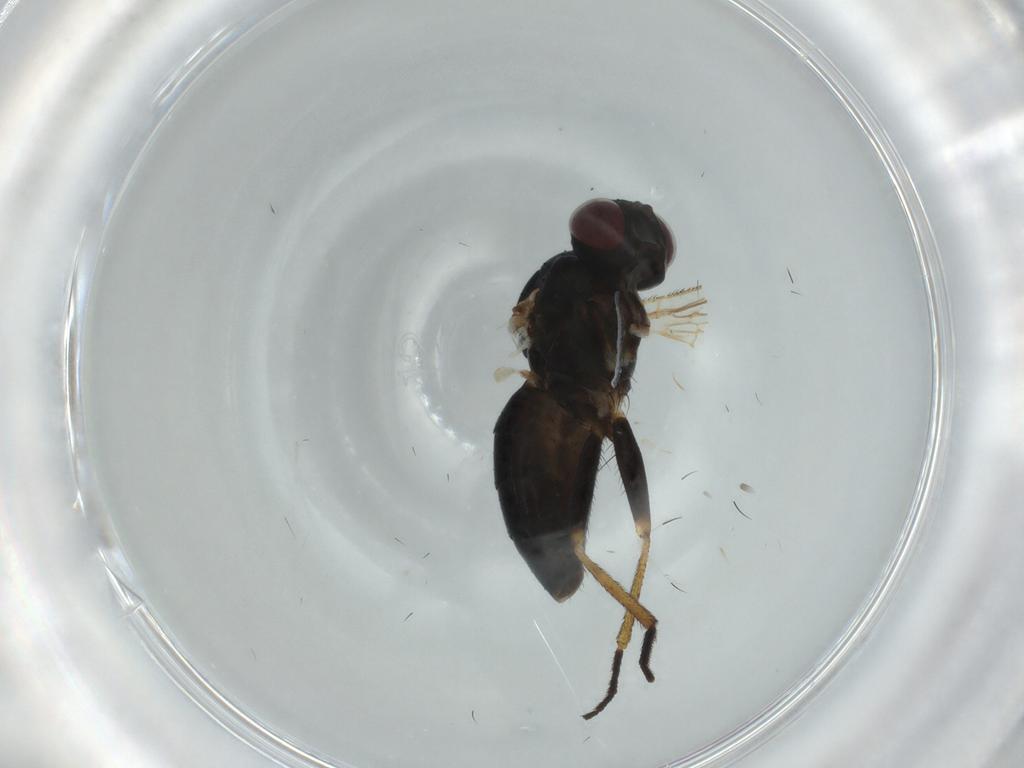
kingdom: Animalia
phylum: Arthropoda
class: Insecta
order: Diptera
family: Muscidae
